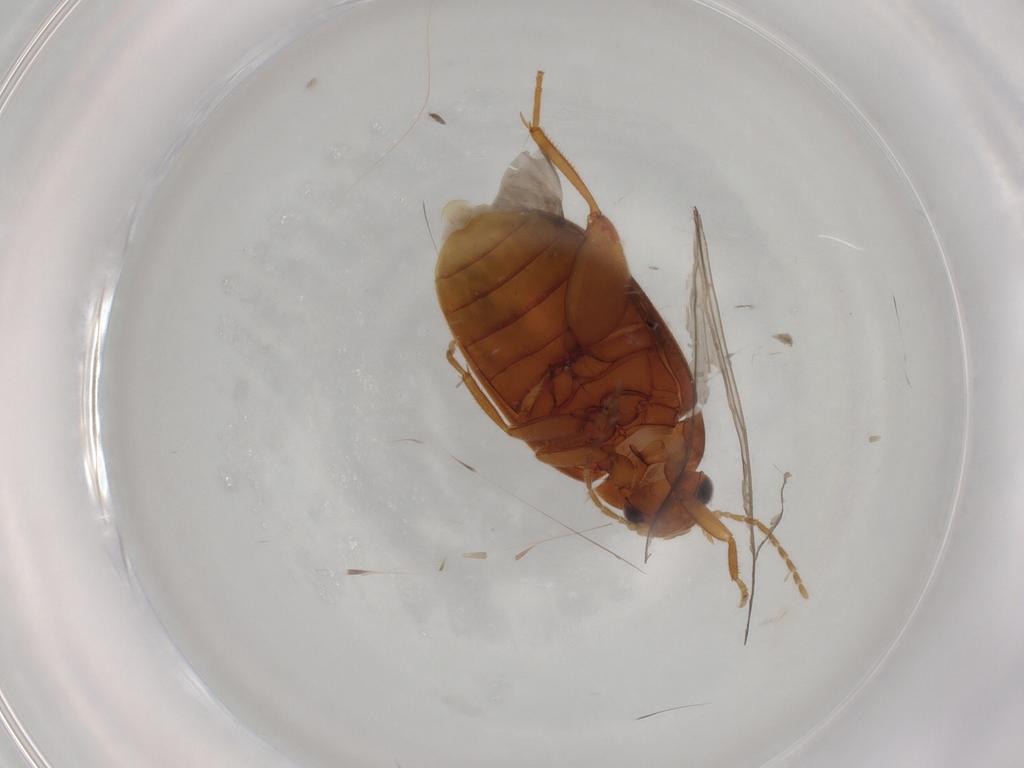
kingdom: Animalia
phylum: Arthropoda
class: Insecta
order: Coleoptera
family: Scirtidae
